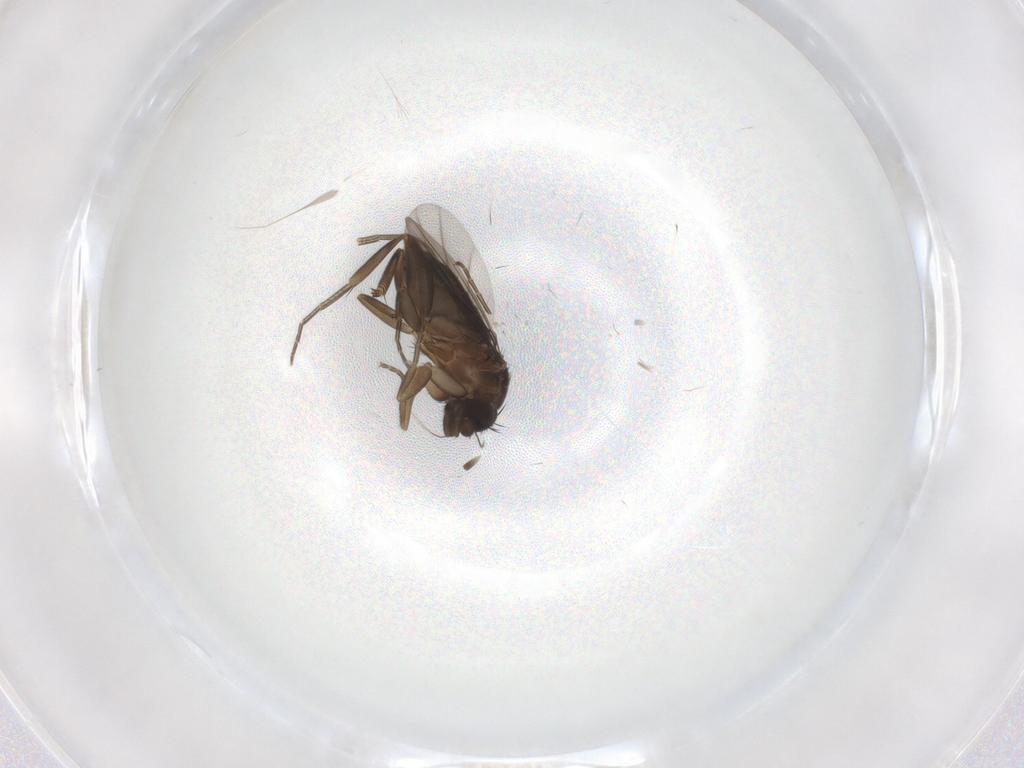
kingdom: Animalia
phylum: Arthropoda
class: Insecta
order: Diptera
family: Phoridae
